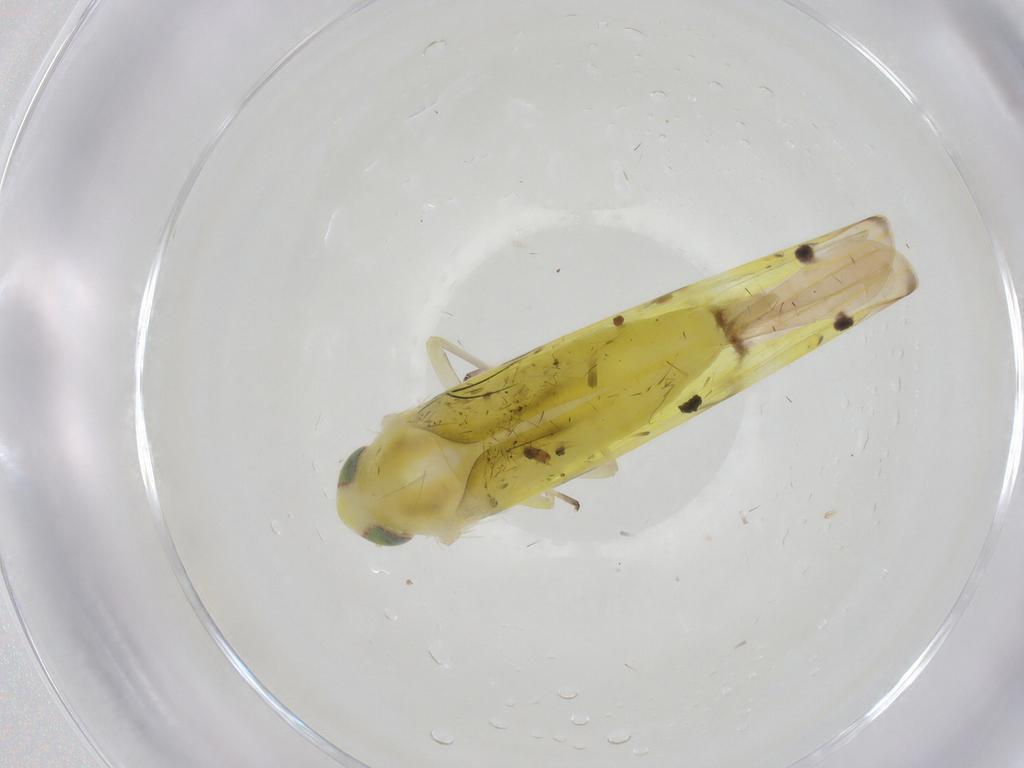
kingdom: Animalia
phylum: Arthropoda
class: Insecta
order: Hemiptera
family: Cicadellidae
